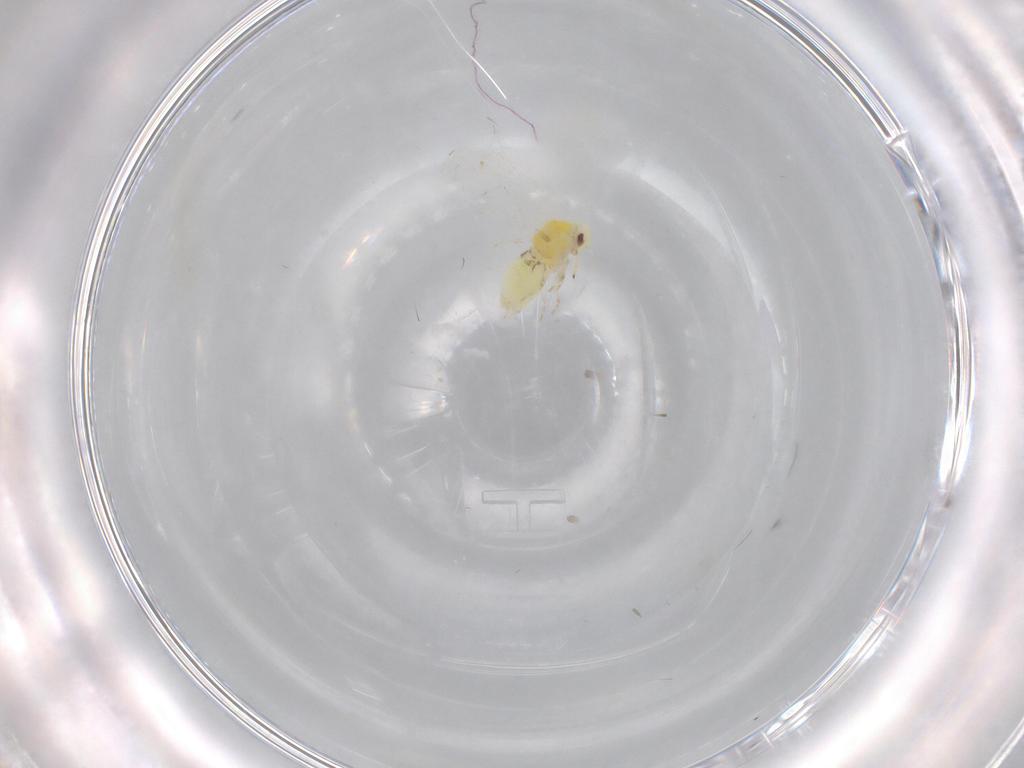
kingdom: Animalia
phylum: Arthropoda
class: Insecta
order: Hemiptera
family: Aleyrodidae
